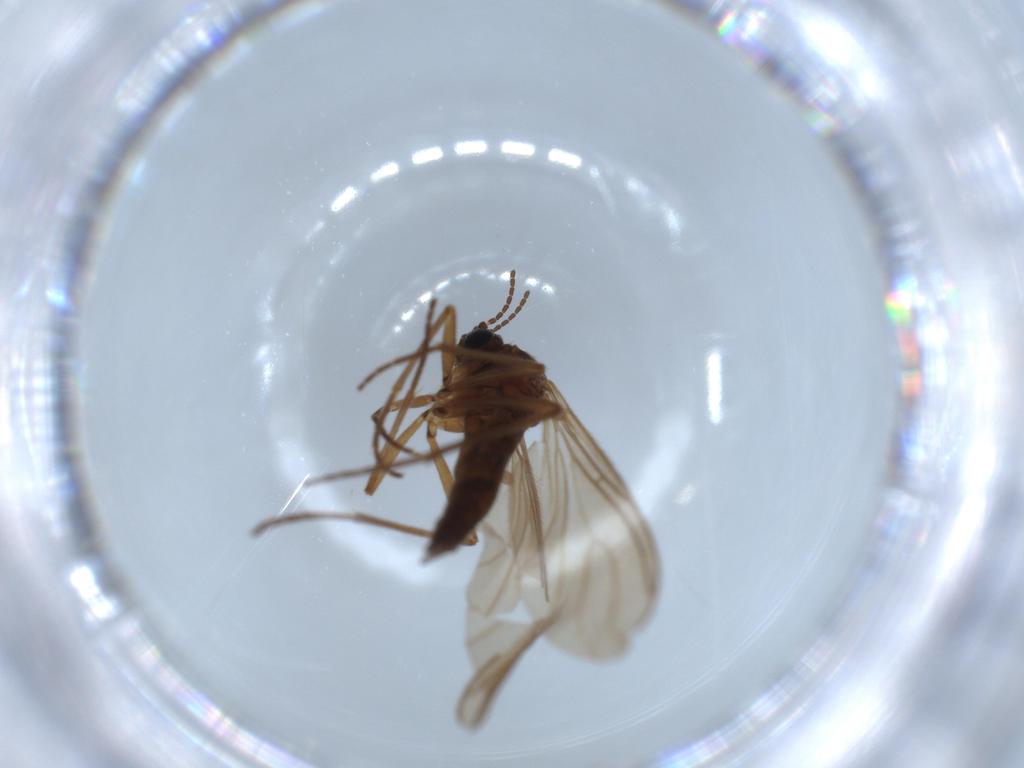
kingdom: Animalia
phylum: Arthropoda
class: Insecta
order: Diptera
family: Sciaridae
